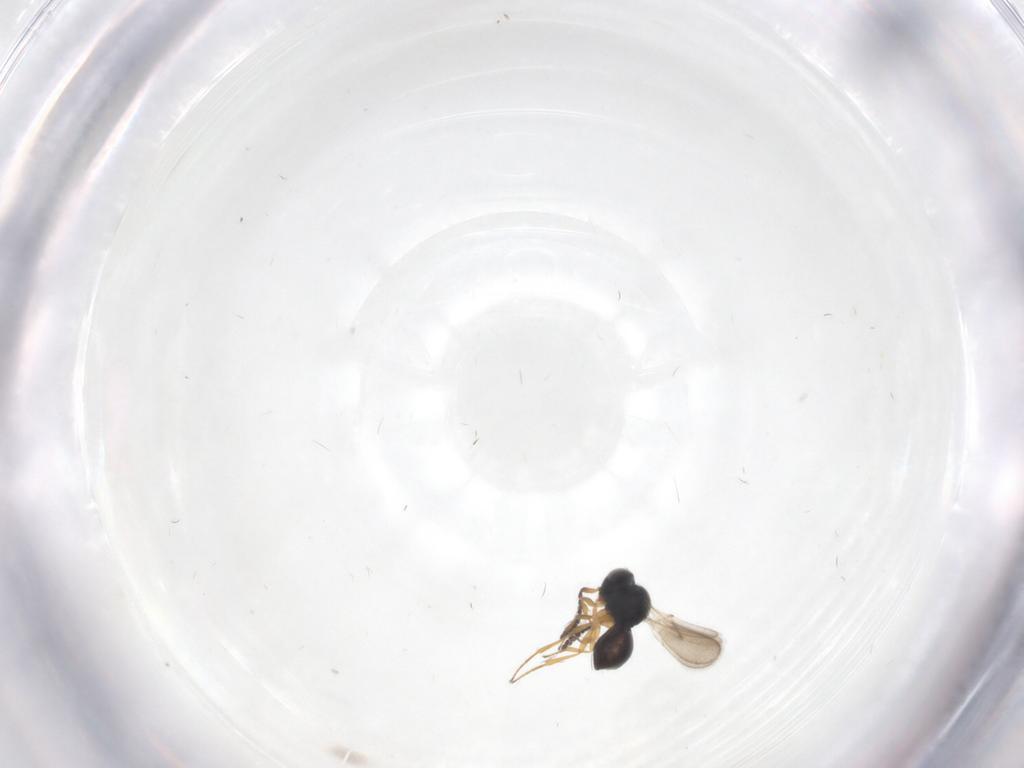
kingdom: Animalia
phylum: Arthropoda
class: Insecta
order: Hymenoptera
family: Scelionidae
